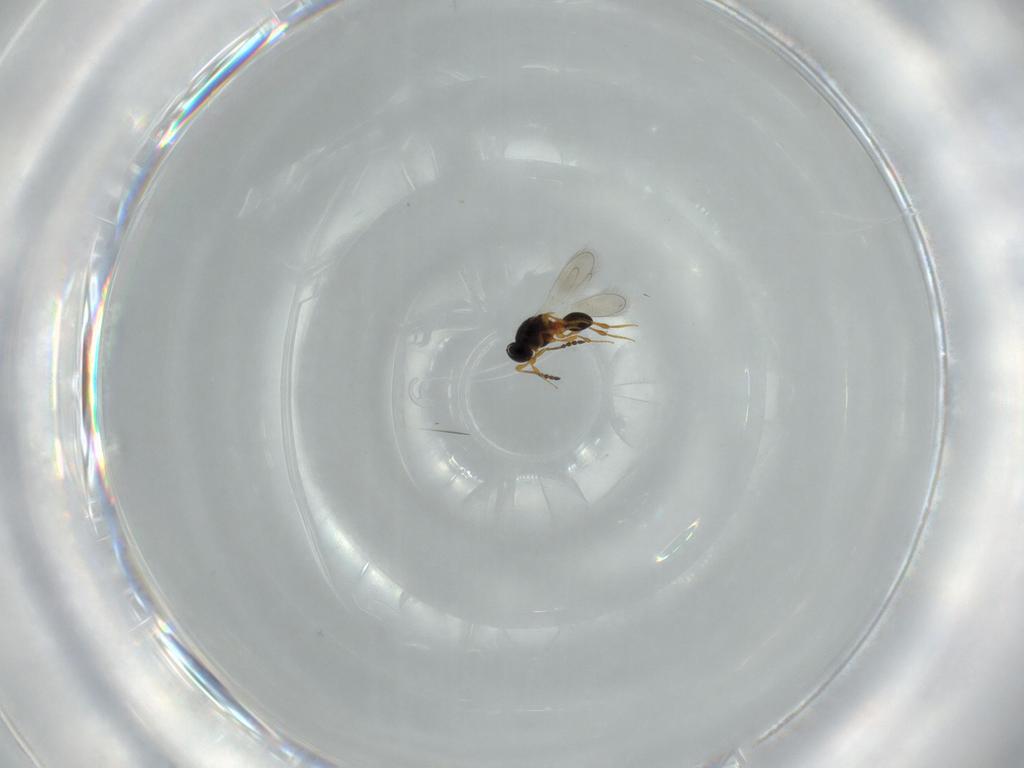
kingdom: Animalia
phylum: Arthropoda
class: Insecta
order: Hymenoptera
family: Platygastridae
